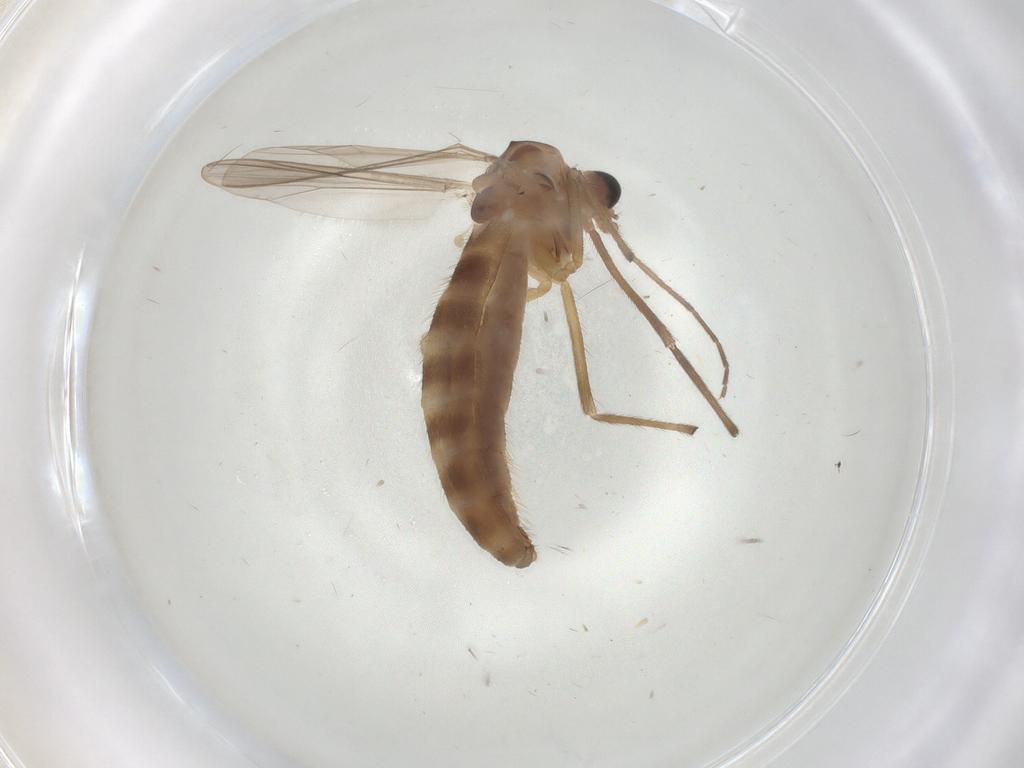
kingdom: Animalia
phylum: Arthropoda
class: Insecta
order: Diptera
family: Chironomidae
